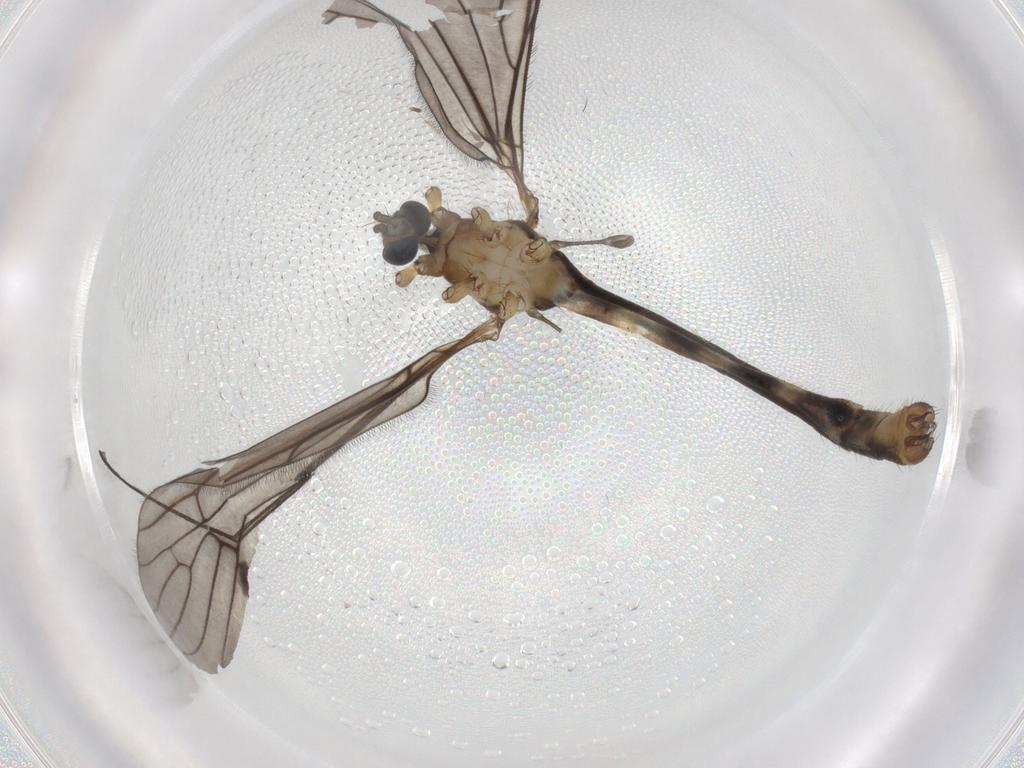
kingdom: Animalia
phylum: Arthropoda
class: Insecta
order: Diptera
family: Limoniidae
